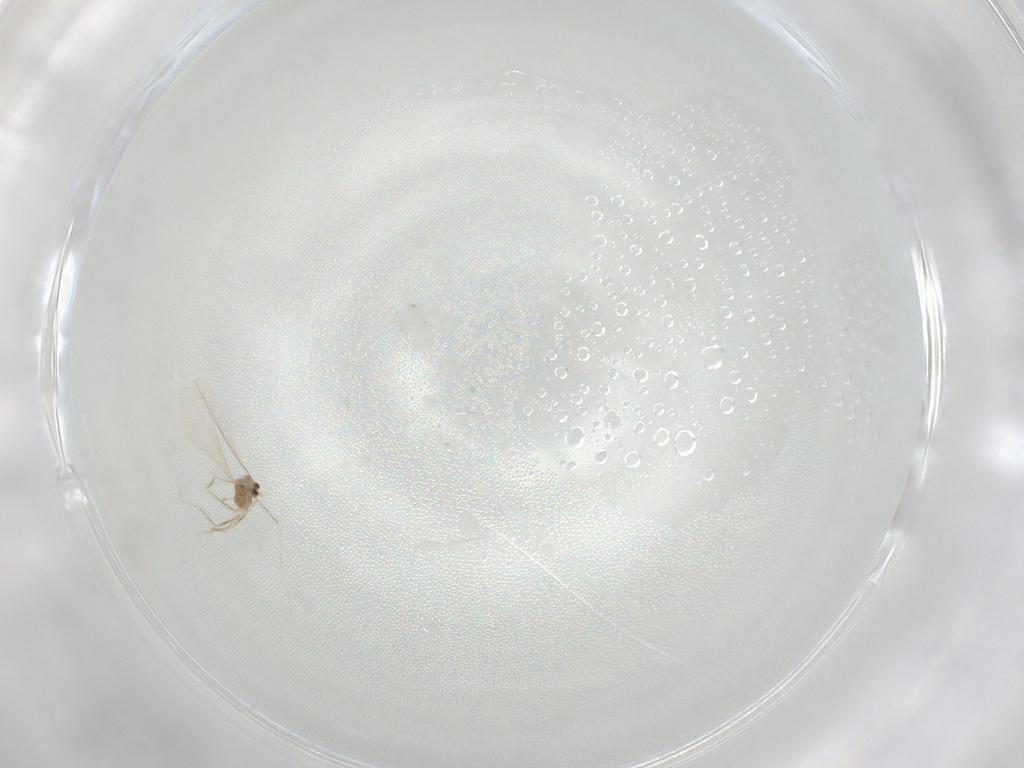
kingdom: Animalia
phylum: Arthropoda
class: Insecta
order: Diptera
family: Cecidomyiidae
